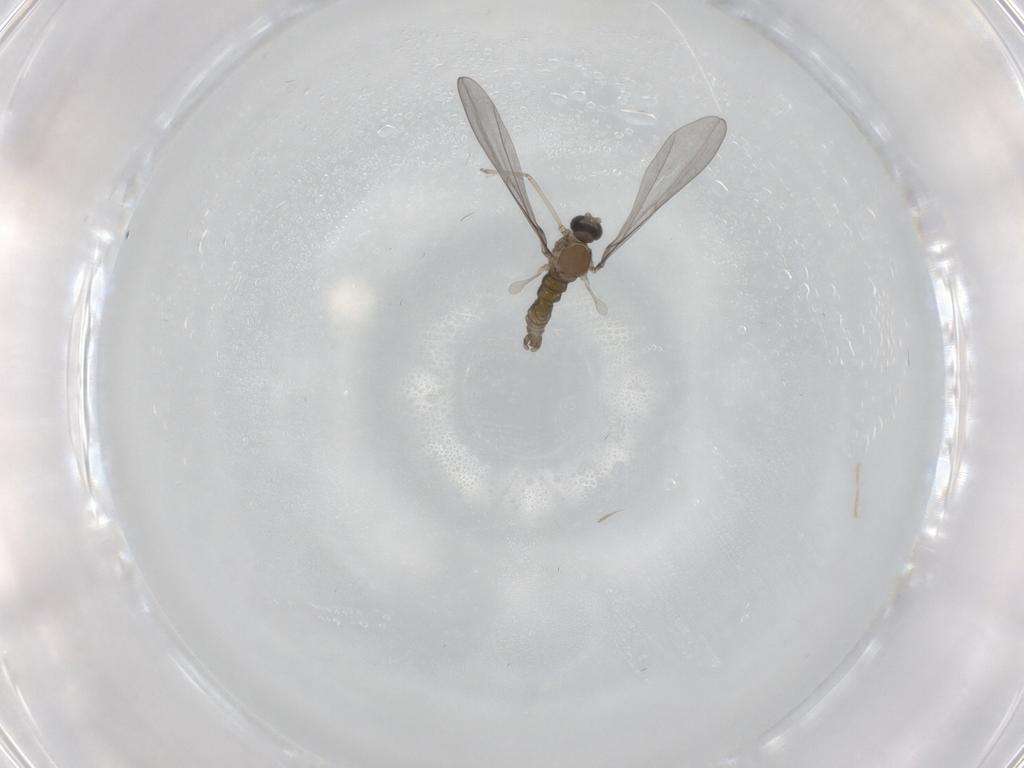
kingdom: Animalia
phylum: Arthropoda
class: Insecta
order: Diptera
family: Cecidomyiidae
